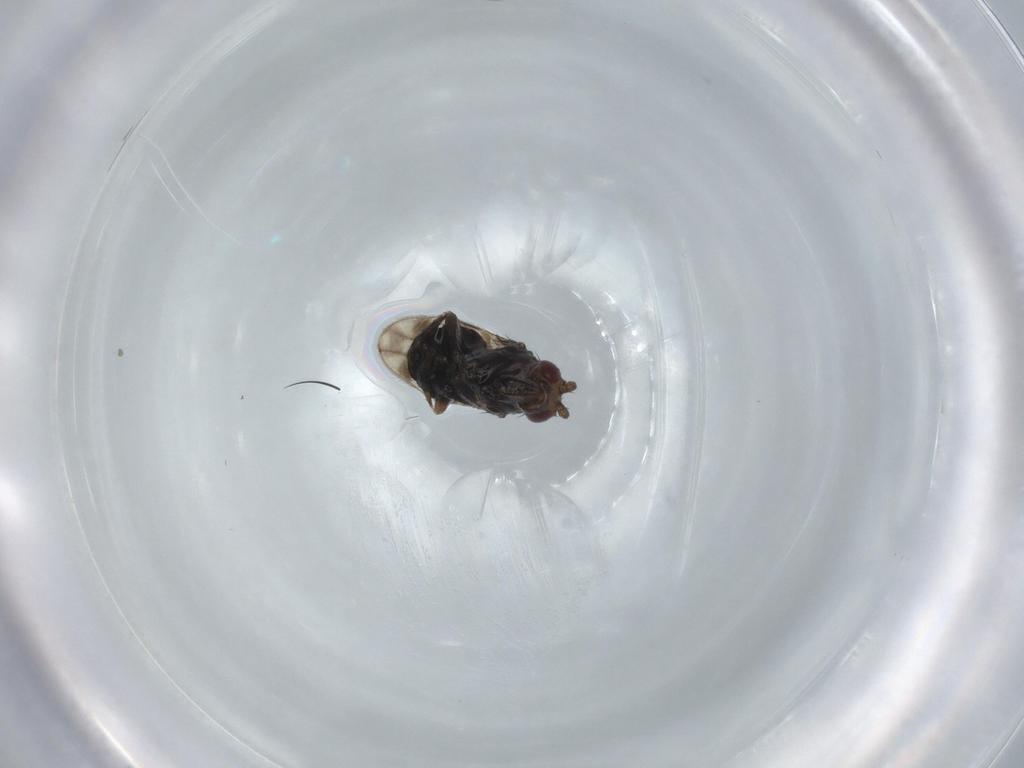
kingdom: Animalia
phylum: Arthropoda
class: Insecta
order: Diptera
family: Sphaeroceridae
